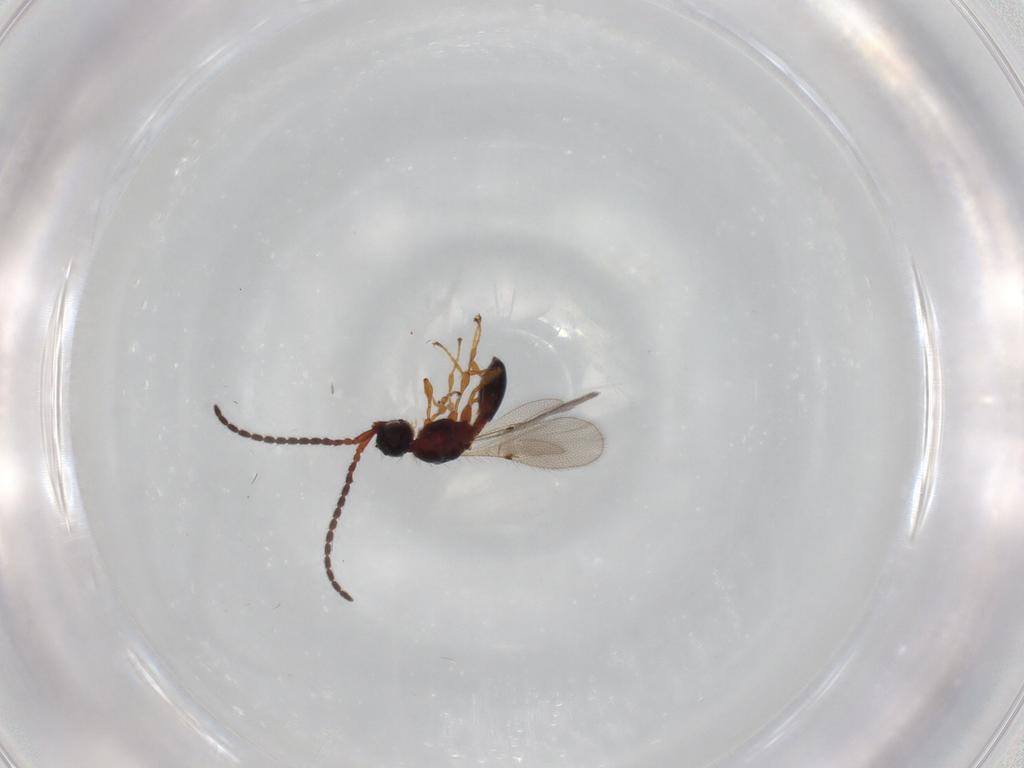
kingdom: Animalia
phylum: Arthropoda
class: Insecta
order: Hymenoptera
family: Diapriidae
